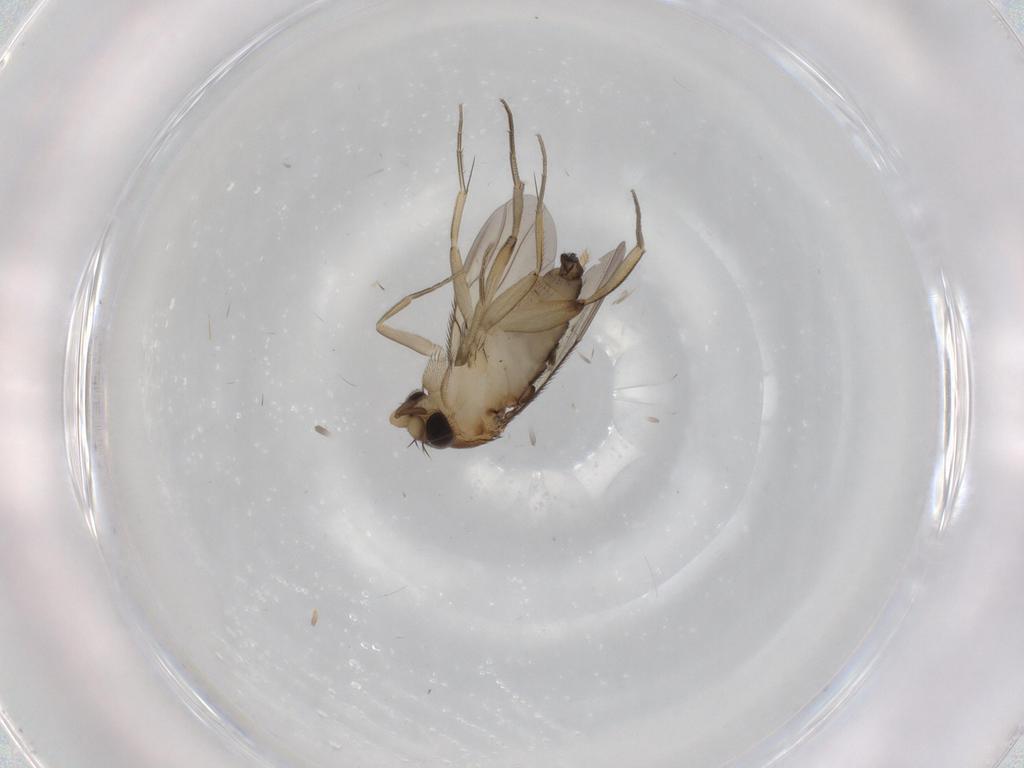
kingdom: Animalia
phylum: Arthropoda
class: Insecta
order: Diptera
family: Phoridae
